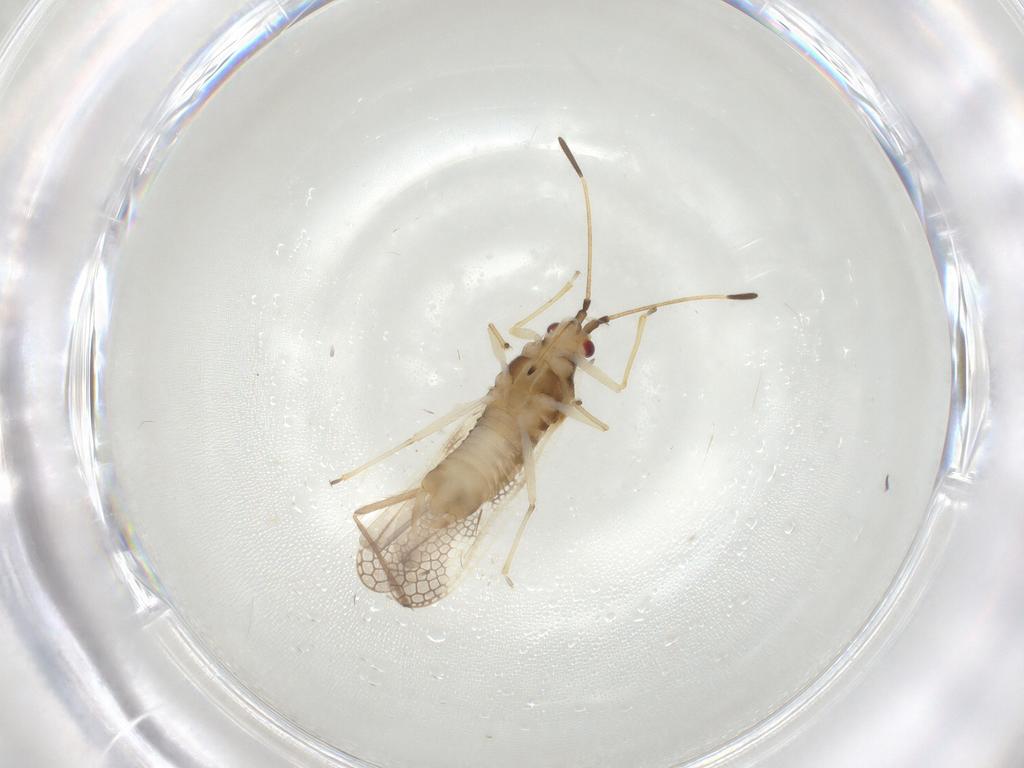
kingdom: Animalia
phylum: Arthropoda
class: Insecta
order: Hemiptera
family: Tingidae
